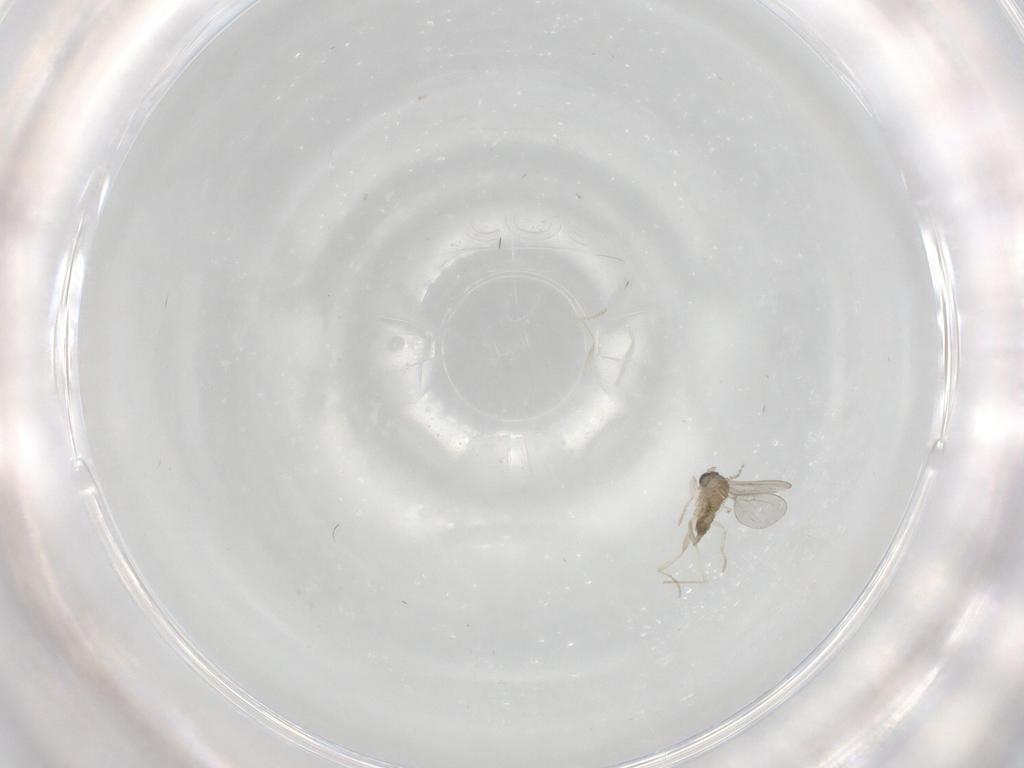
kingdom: Animalia
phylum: Arthropoda
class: Insecta
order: Diptera
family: Cecidomyiidae
